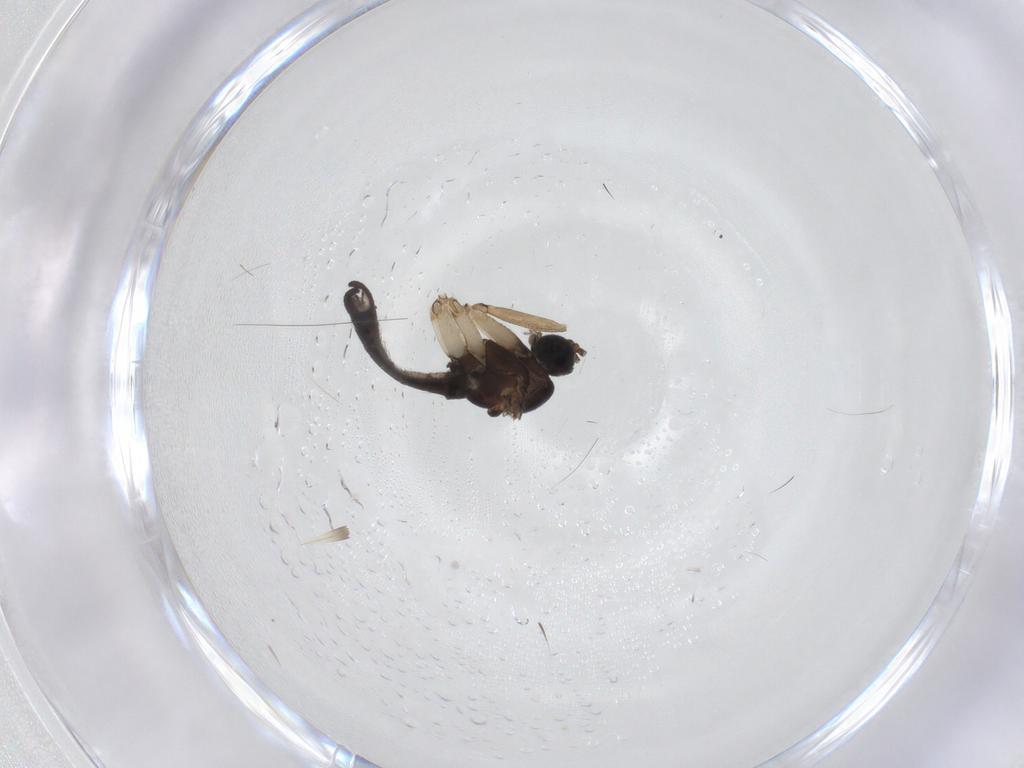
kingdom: Animalia
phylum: Arthropoda
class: Insecta
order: Diptera
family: Sciaridae
